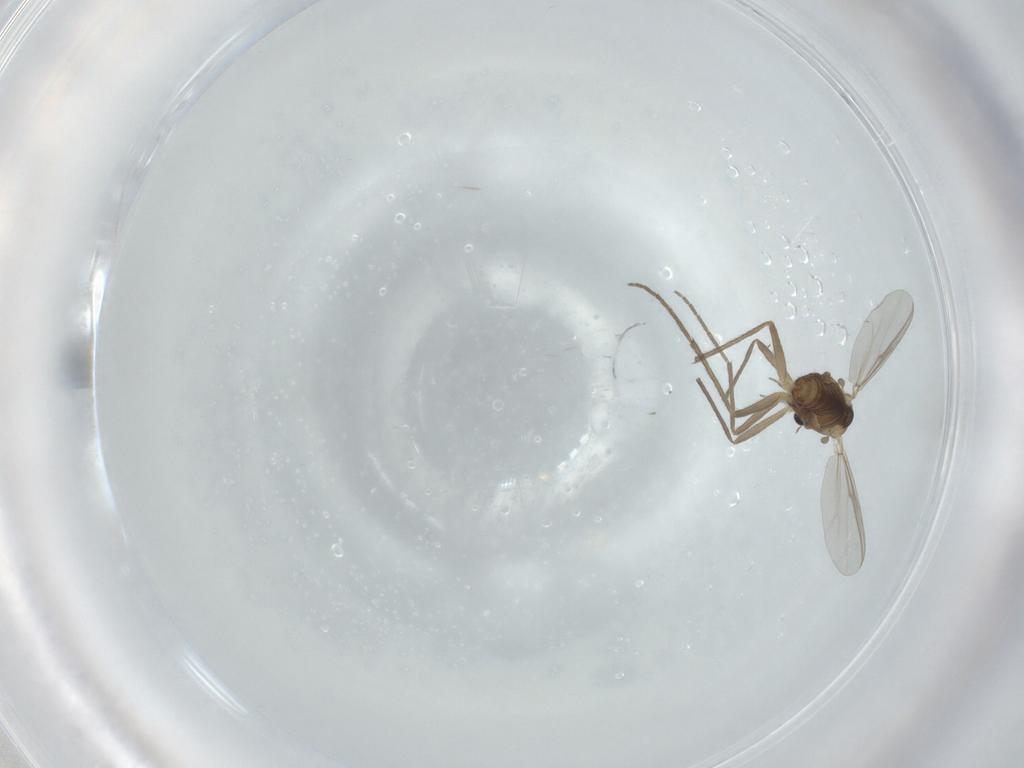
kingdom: Animalia
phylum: Arthropoda
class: Insecta
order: Diptera
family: Chironomidae
